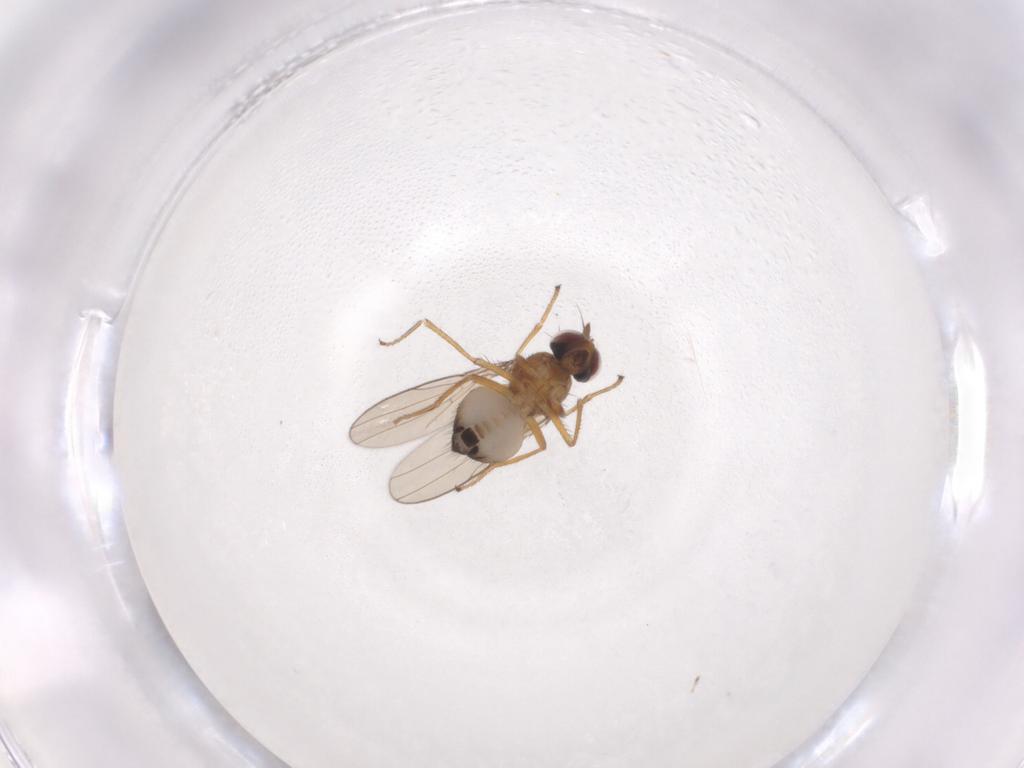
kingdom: Animalia
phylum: Arthropoda
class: Insecta
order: Diptera
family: Ephydridae
